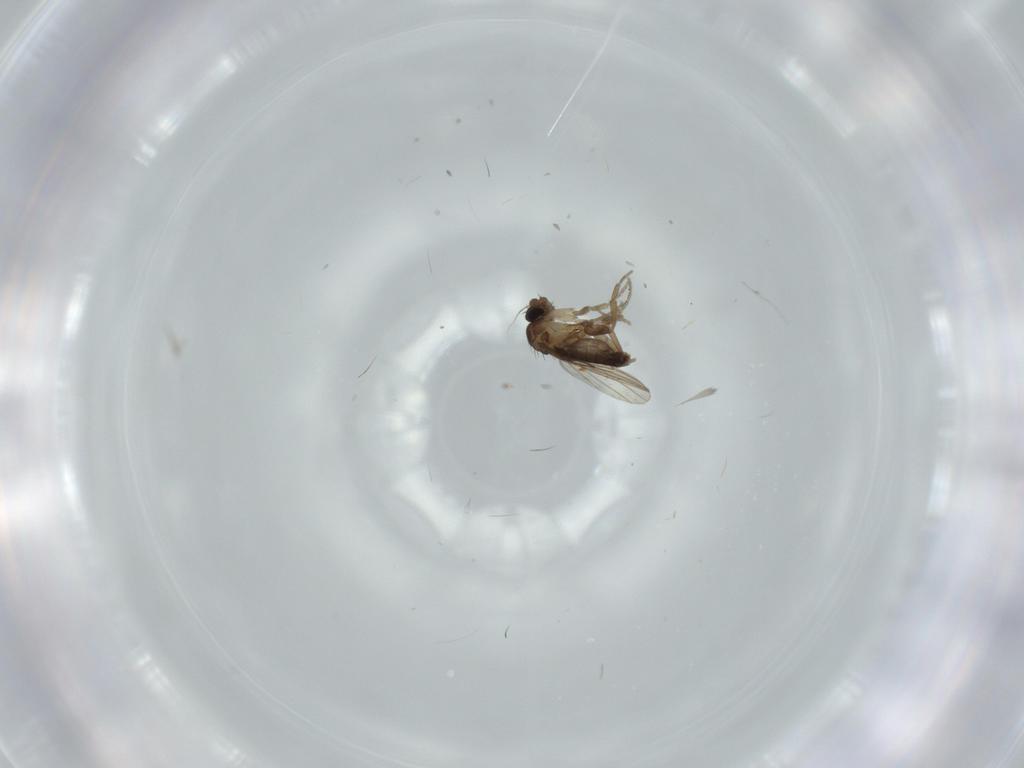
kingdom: Animalia
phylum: Arthropoda
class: Insecta
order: Diptera
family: Phoridae
